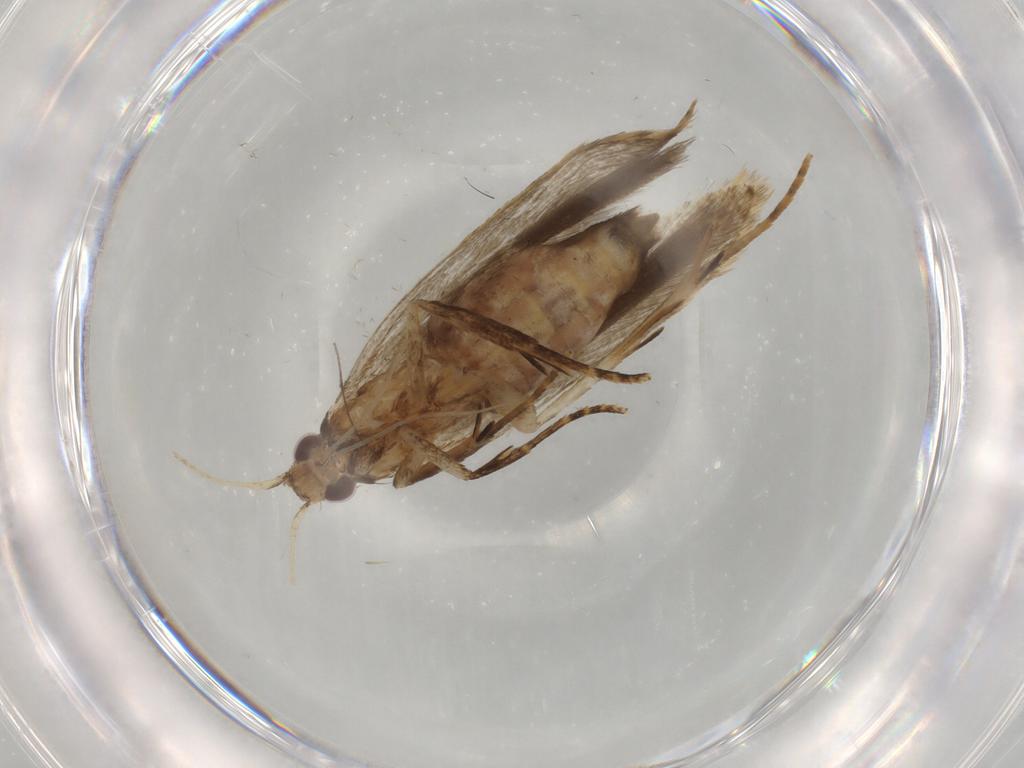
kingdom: Animalia
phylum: Arthropoda
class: Insecta
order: Lepidoptera
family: Gelechiidae
